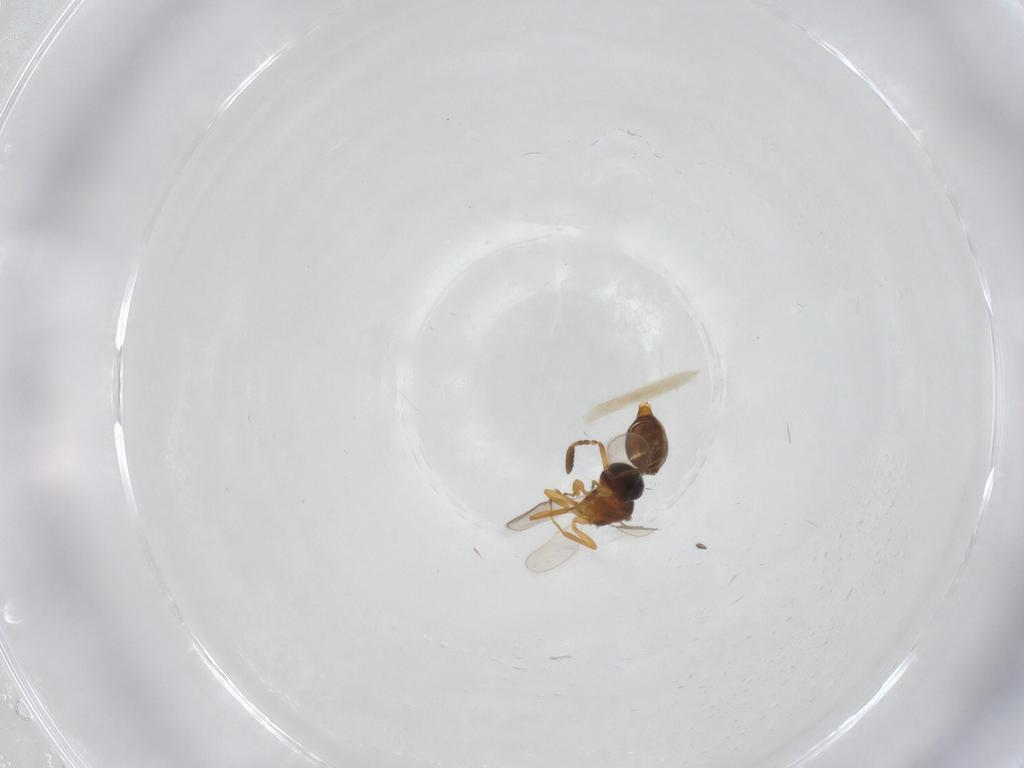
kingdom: Animalia
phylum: Arthropoda
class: Insecta
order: Hymenoptera
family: Scelionidae
